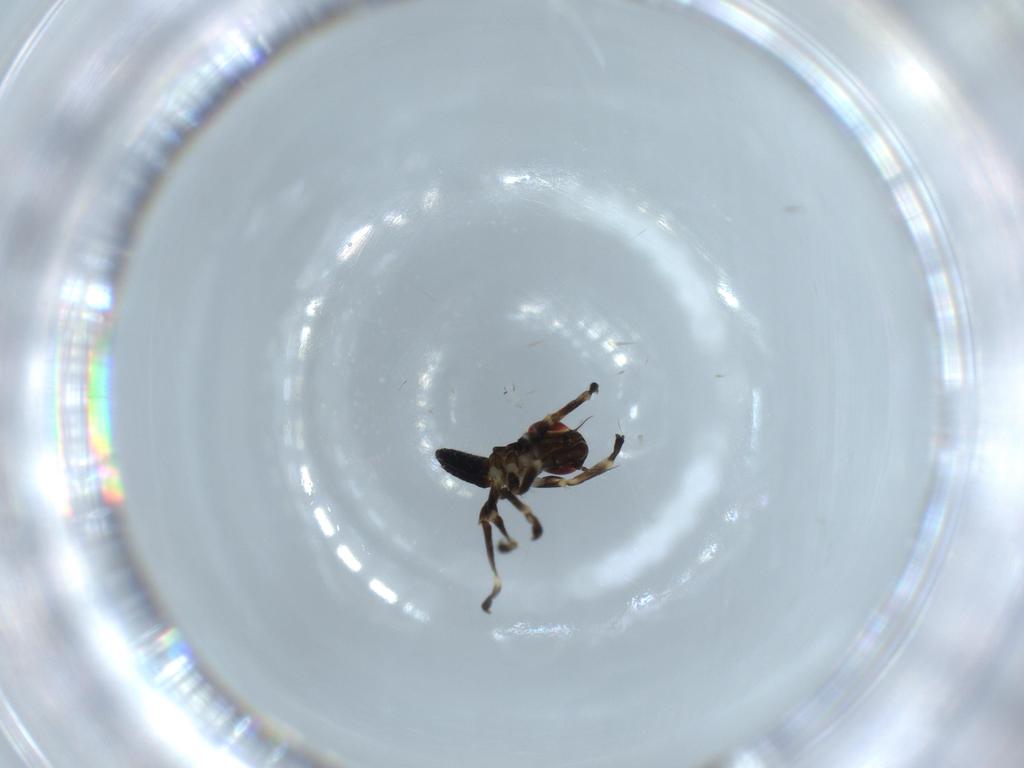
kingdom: Animalia
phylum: Arthropoda
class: Insecta
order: Hemiptera
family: Cicadellidae
